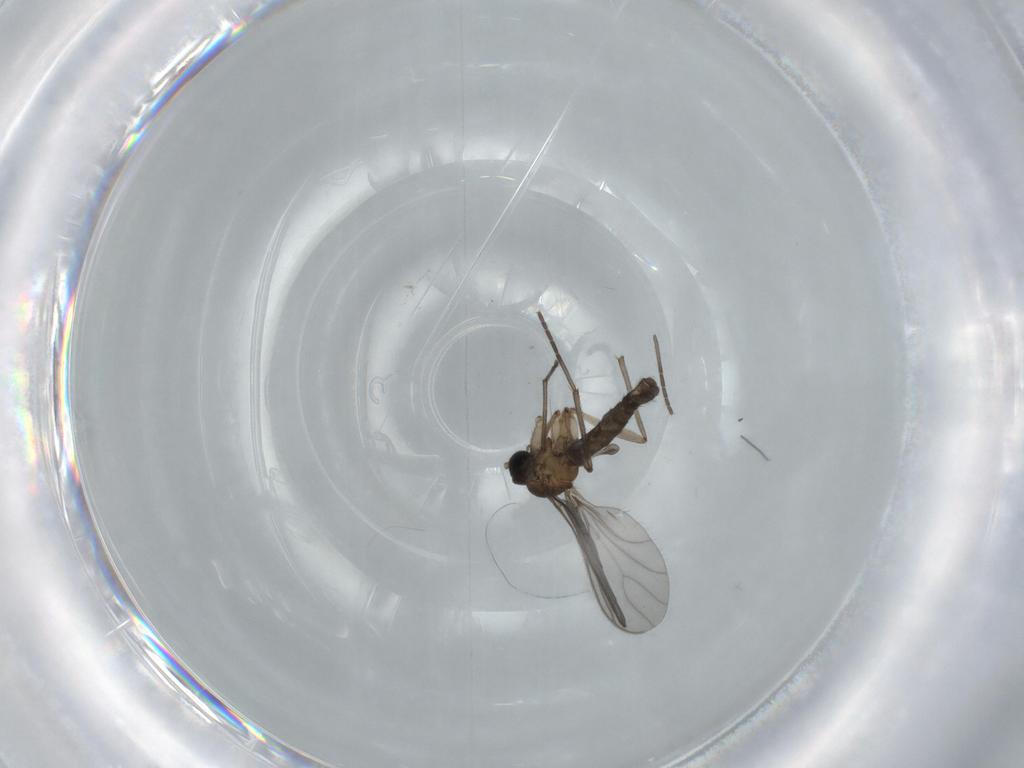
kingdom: Animalia
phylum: Arthropoda
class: Insecta
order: Diptera
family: Sciaridae
